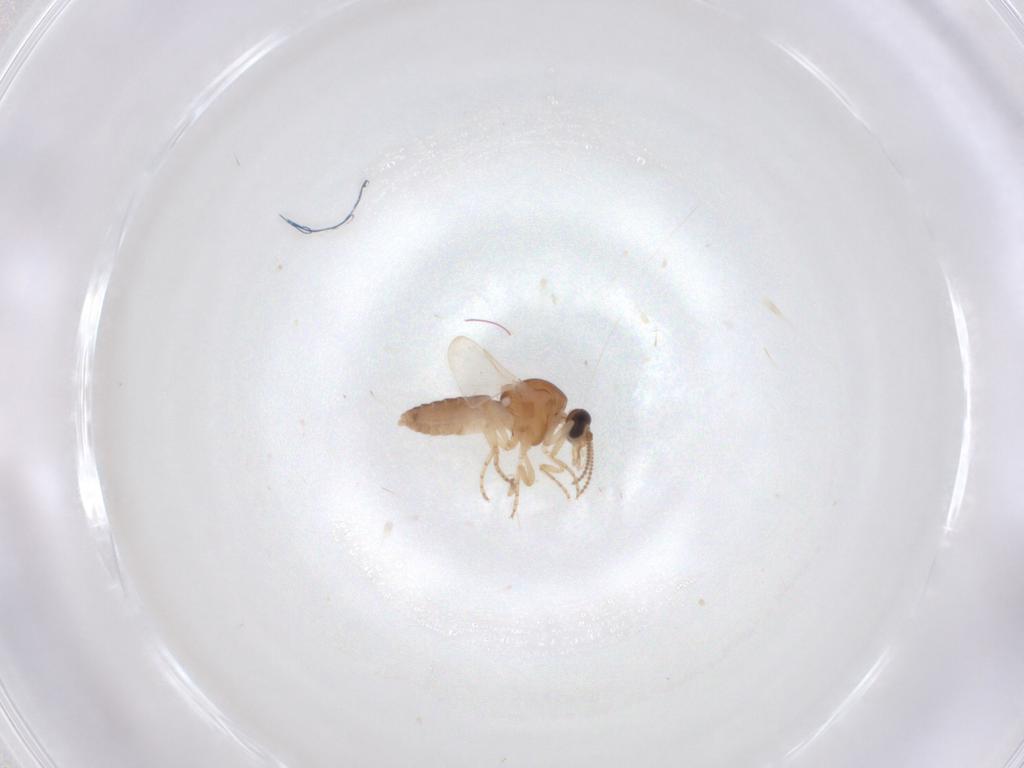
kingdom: Animalia
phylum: Arthropoda
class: Insecta
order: Diptera
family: Ceratopogonidae
